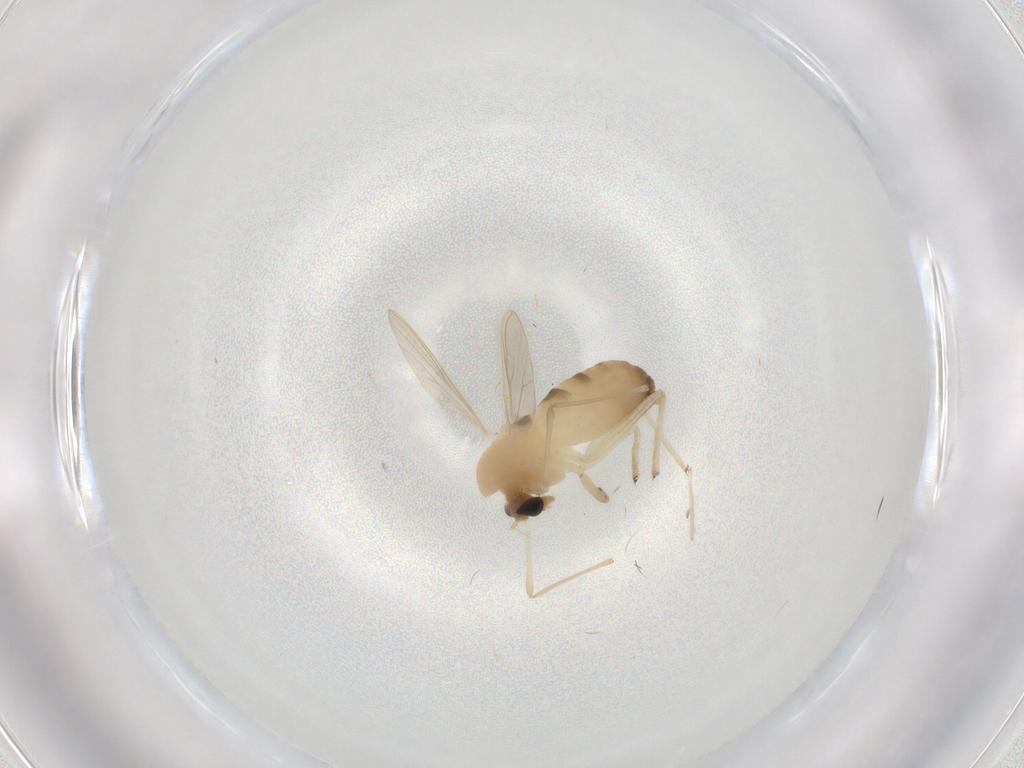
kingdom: Animalia
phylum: Arthropoda
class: Insecta
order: Diptera
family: Chironomidae
